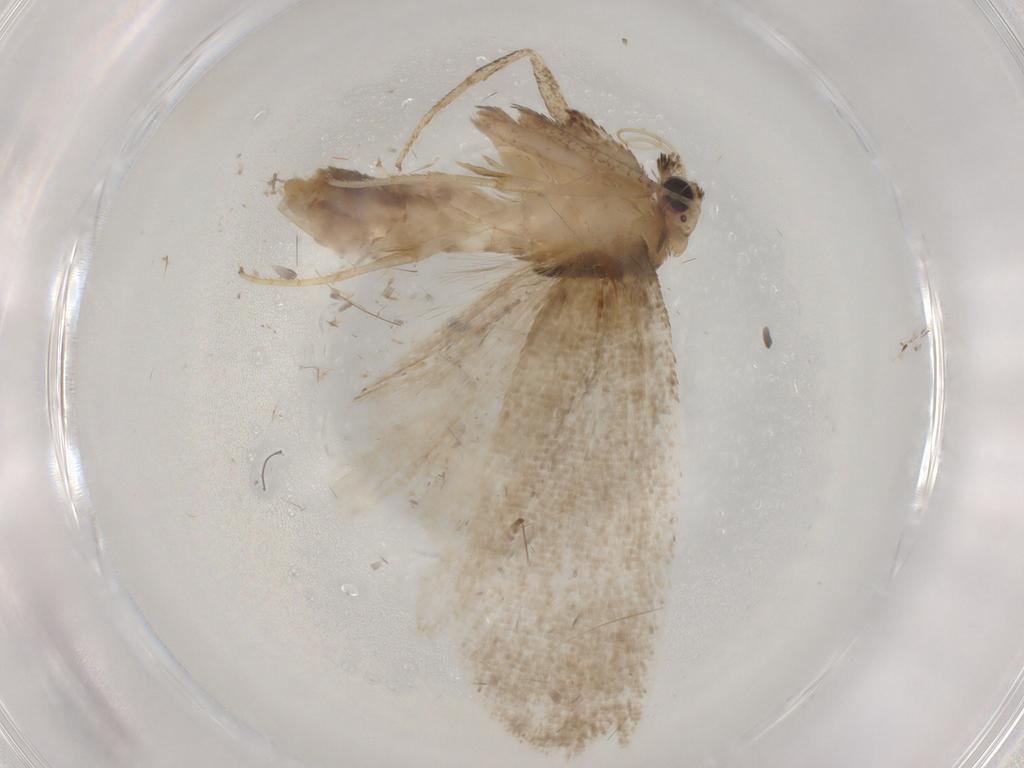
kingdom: Animalia
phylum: Arthropoda
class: Insecta
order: Lepidoptera
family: Nolidae
